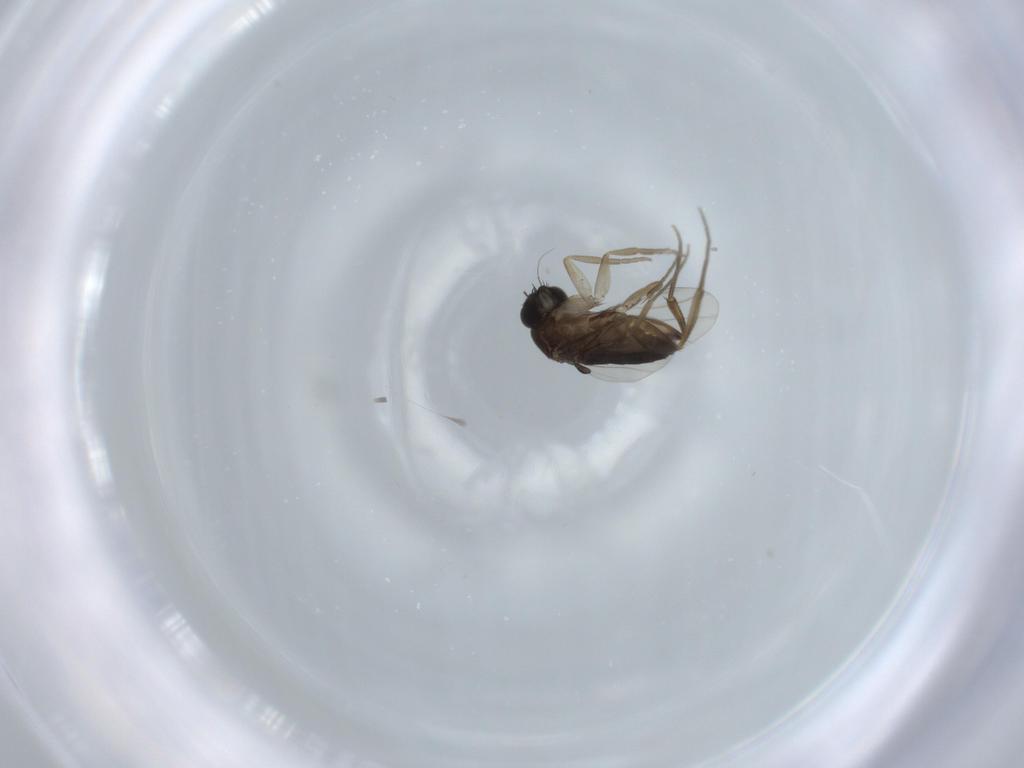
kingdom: Animalia
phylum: Arthropoda
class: Insecta
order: Diptera
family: Phoridae
